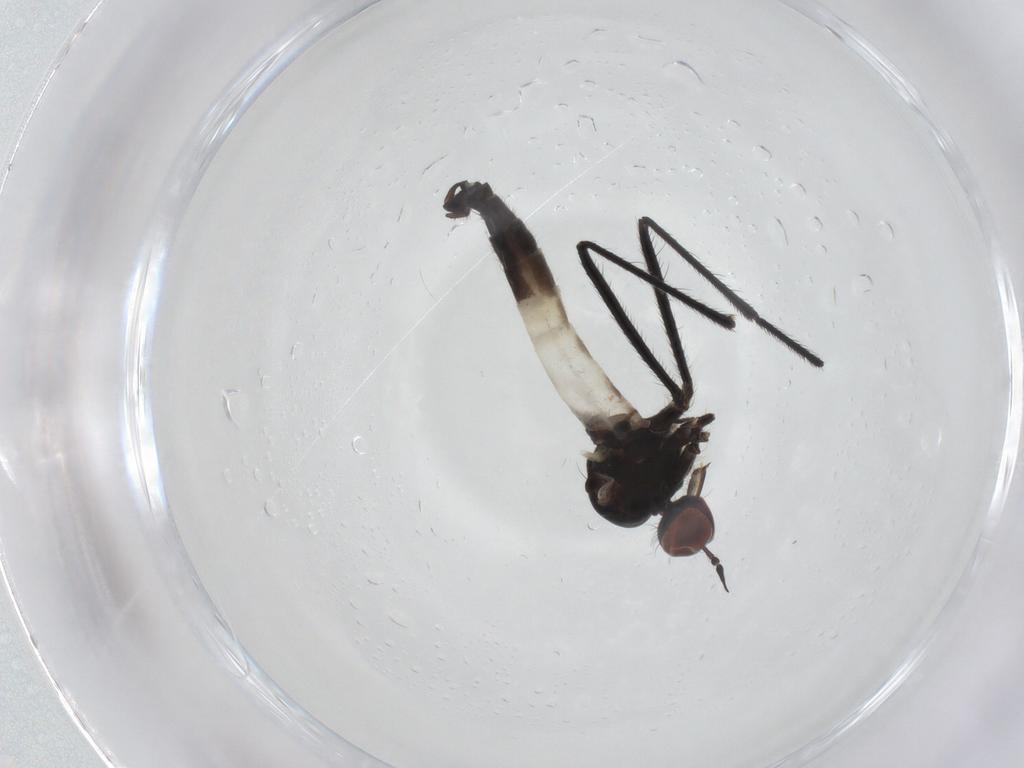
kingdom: Animalia
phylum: Arthropoda
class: Insecta
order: Diptera
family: Empididae
